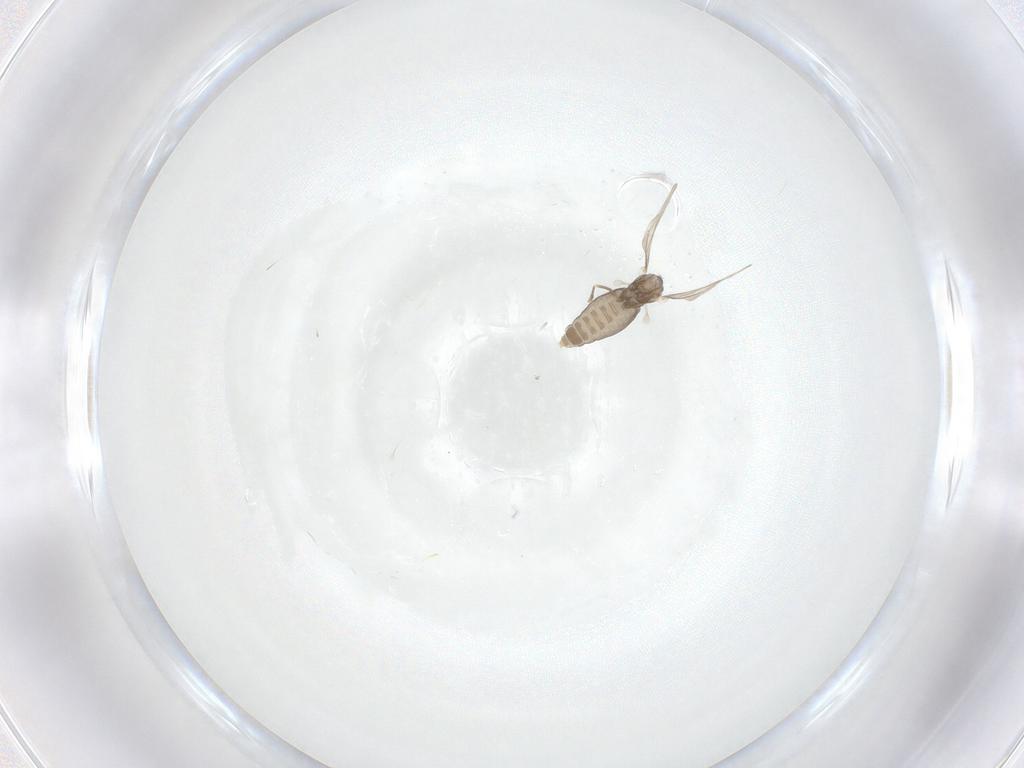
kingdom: Animalia
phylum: Arthropoda
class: Insecta
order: Diptera
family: Cecidomyiidae
